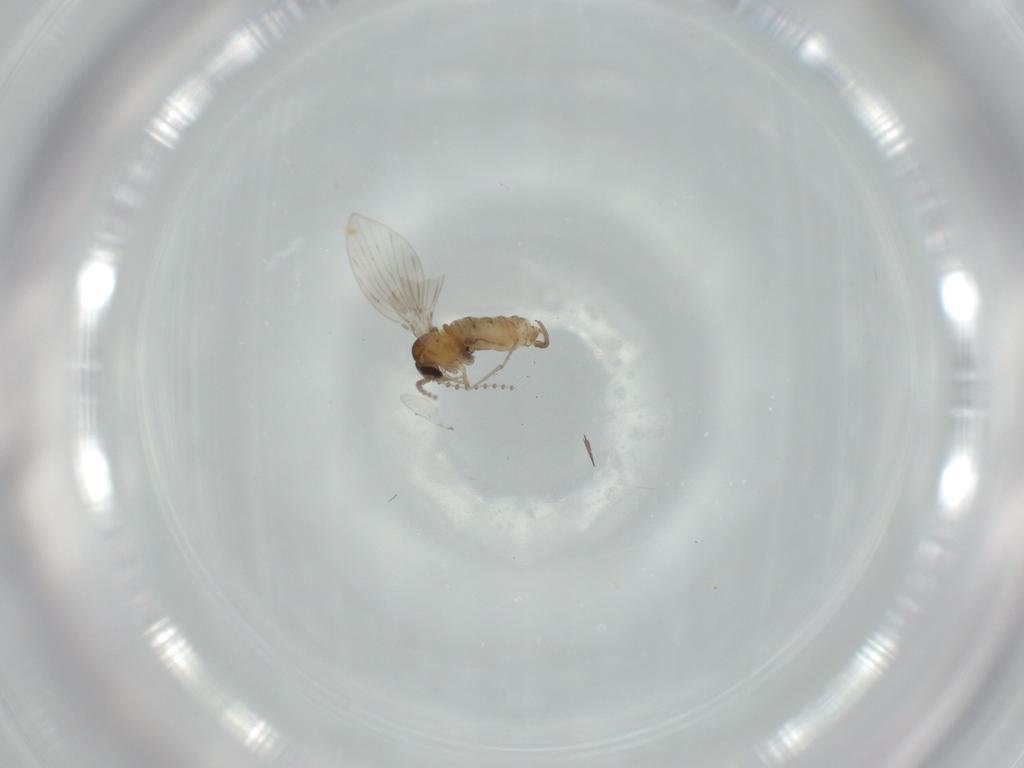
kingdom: Animalia
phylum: Arthropoda
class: Insecta
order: Diptera
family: Sciaridae
